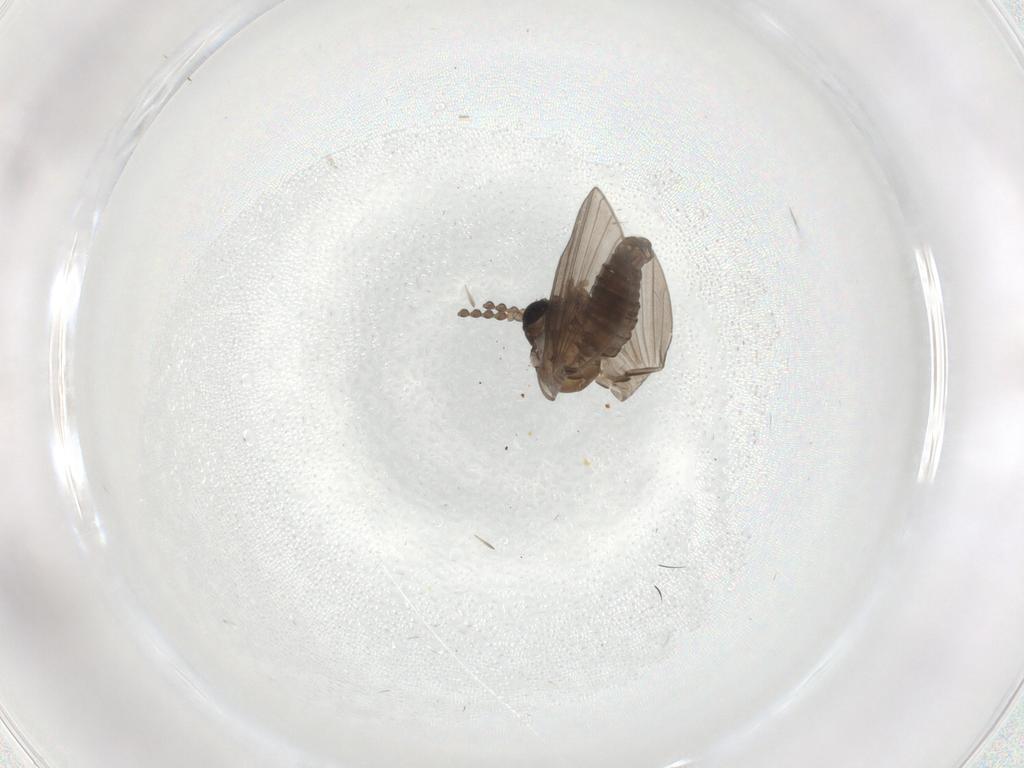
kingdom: Animalia
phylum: Arthropoda
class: Insecta
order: Diptera
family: Psychodidae
